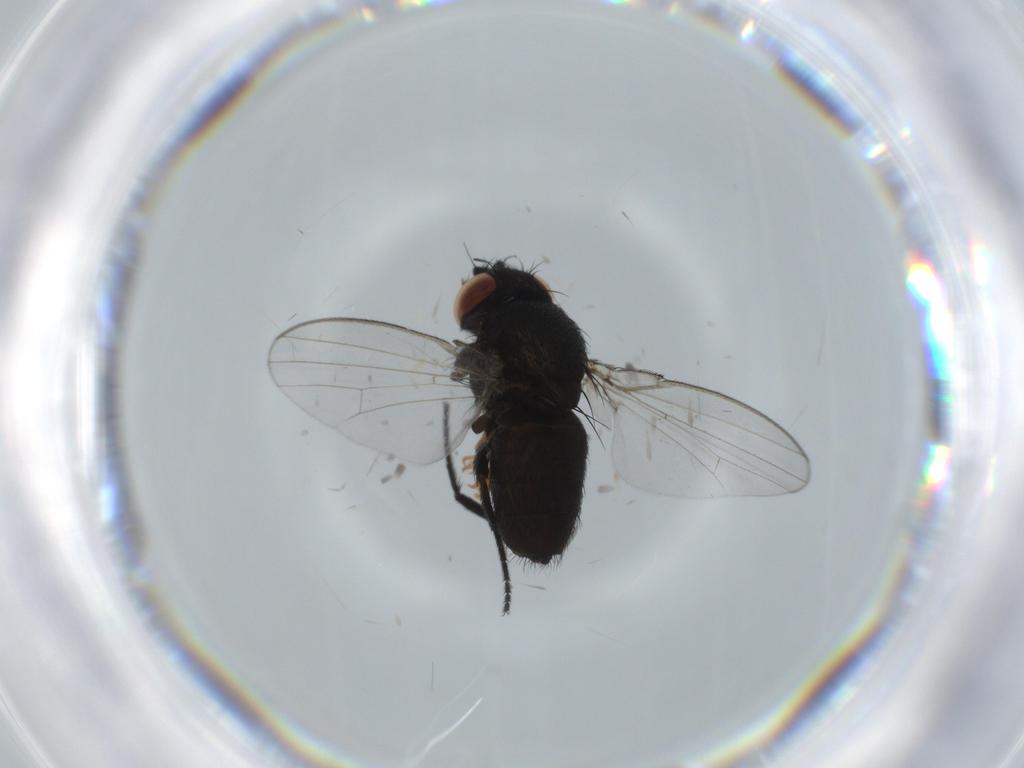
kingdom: Animalia
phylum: Arthropoda
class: Insecta
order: Diptera
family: Milichiidae
